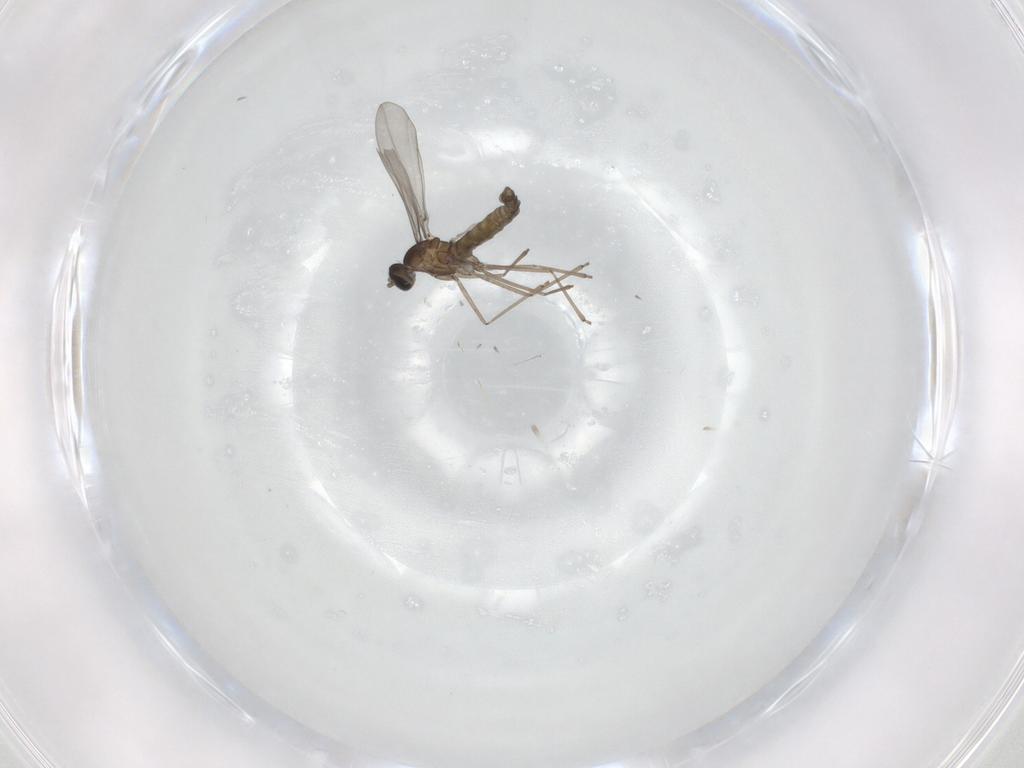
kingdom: Animalia
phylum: Arthropoda
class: Insecta
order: Diptera
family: Cecidomyiidae
